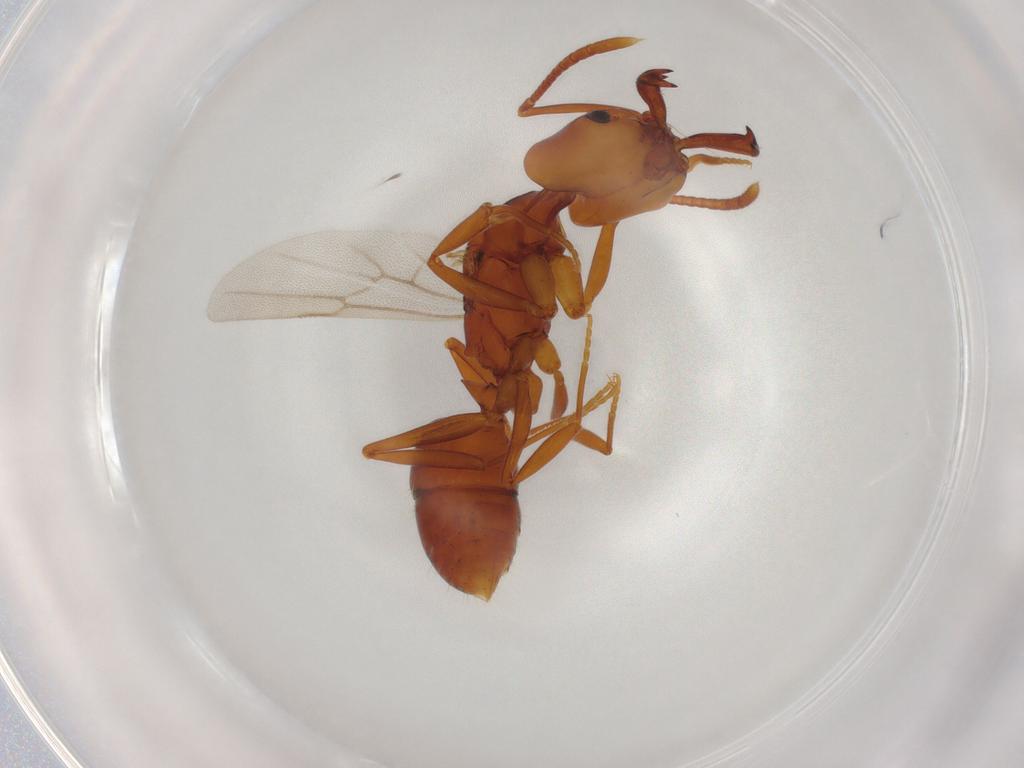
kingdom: Animalia
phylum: Arthropoda
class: Insecta
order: Hymenoptera
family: Formicidae
